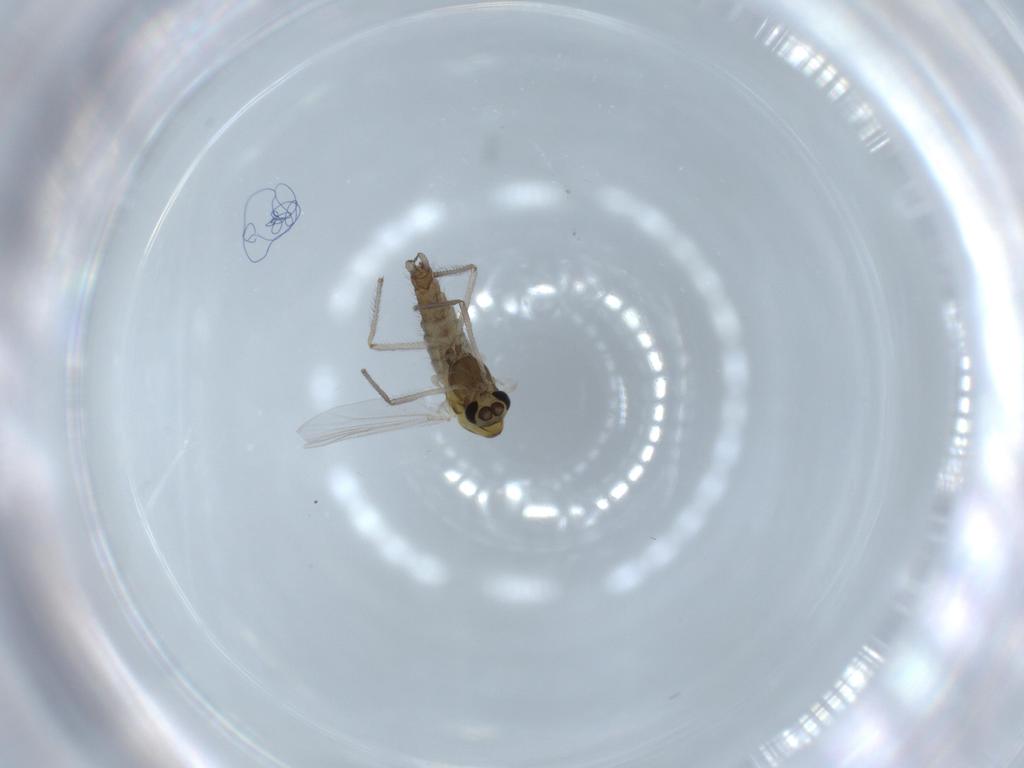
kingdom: Animalia
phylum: Arthropoda
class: Insecta
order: Diptera
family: Chironomidae
